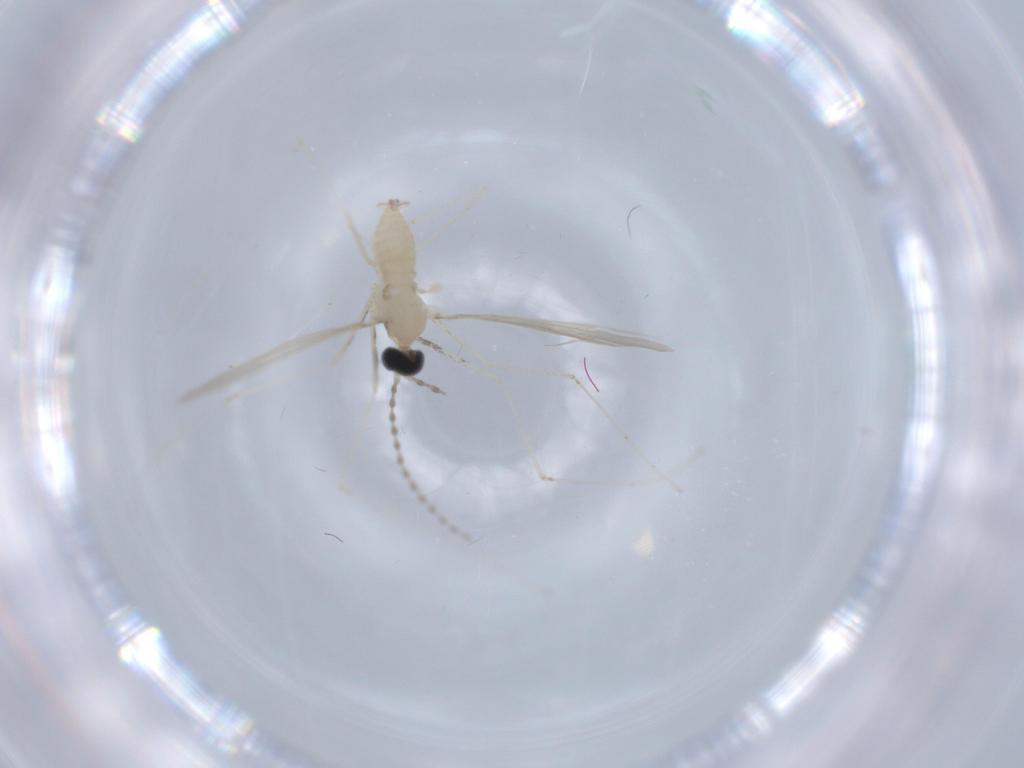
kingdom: Animalia
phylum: Arthropoda
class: Insecta
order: Diptera
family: Cecidomyiidae
